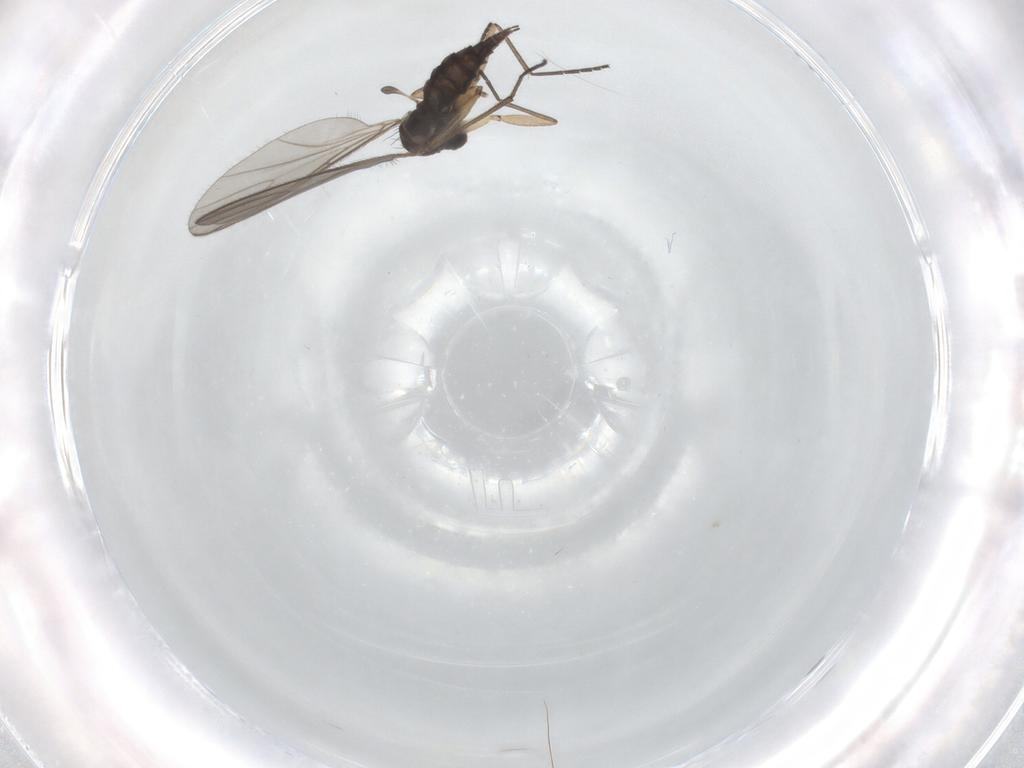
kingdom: Animalia
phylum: Arthropoda
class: Insecta
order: Diptera
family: Sciaridae
